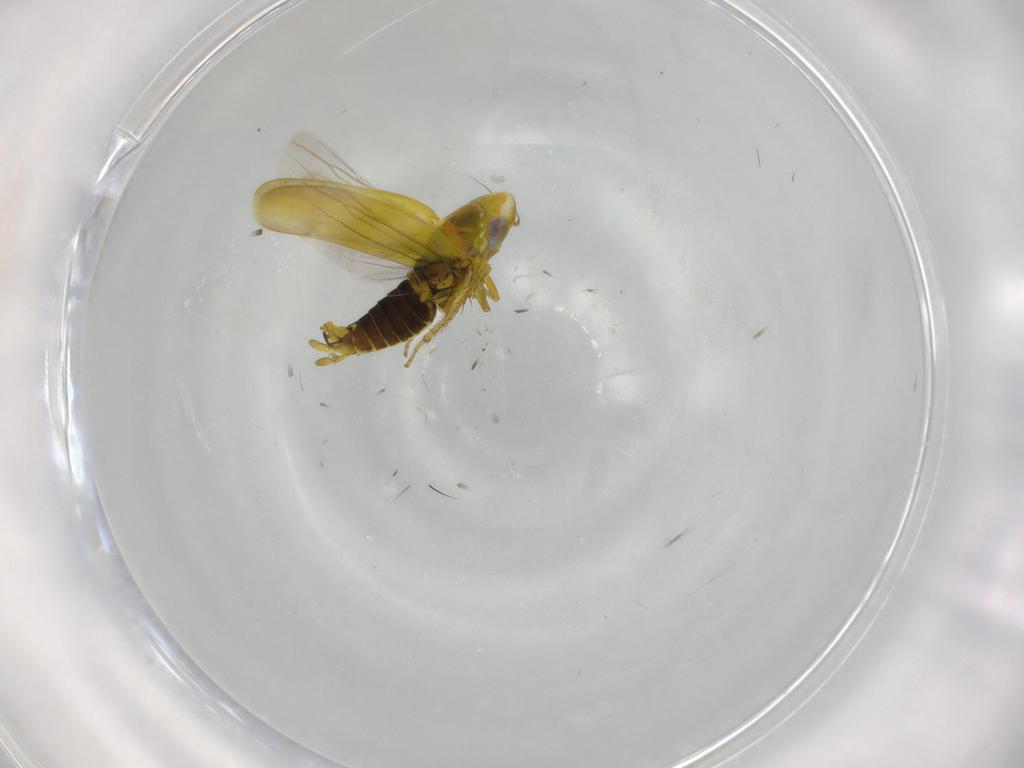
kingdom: Animalia
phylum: Arthropoda
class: Insecta
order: Hemiptera
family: Cicadellidae
